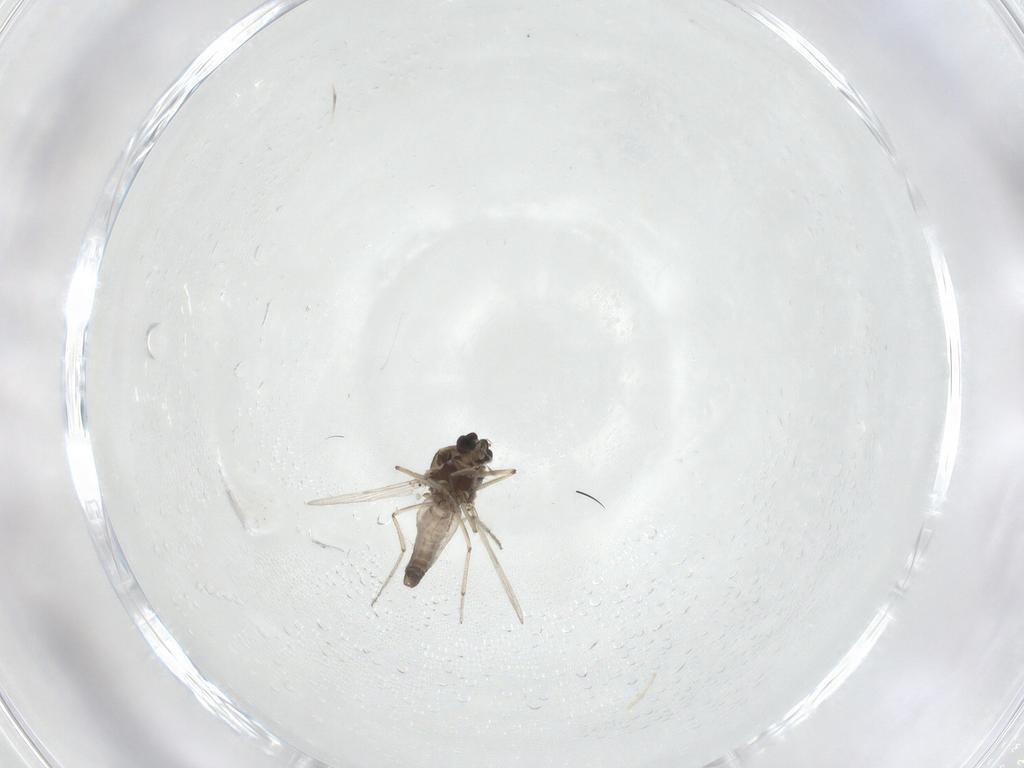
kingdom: Animalia
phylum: Arthropoda
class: Insecta
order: Diptera
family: Ceratopogonidae
